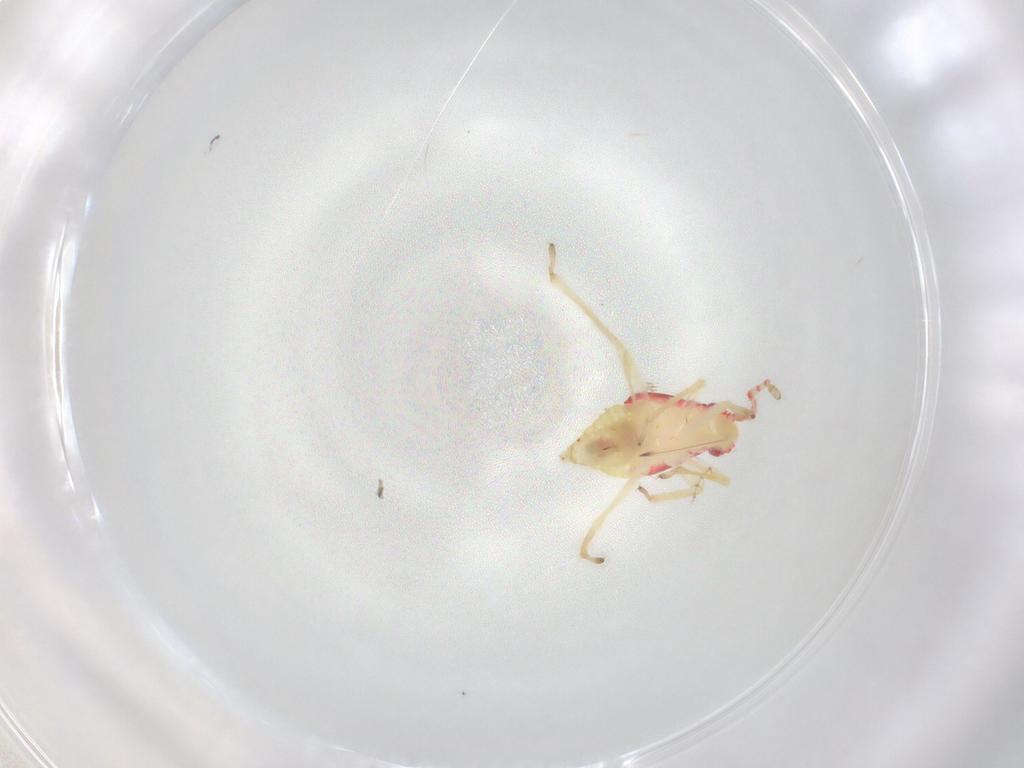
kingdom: Animalia
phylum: Arthropoda
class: Insecta
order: Hemiptera
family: Miridae
